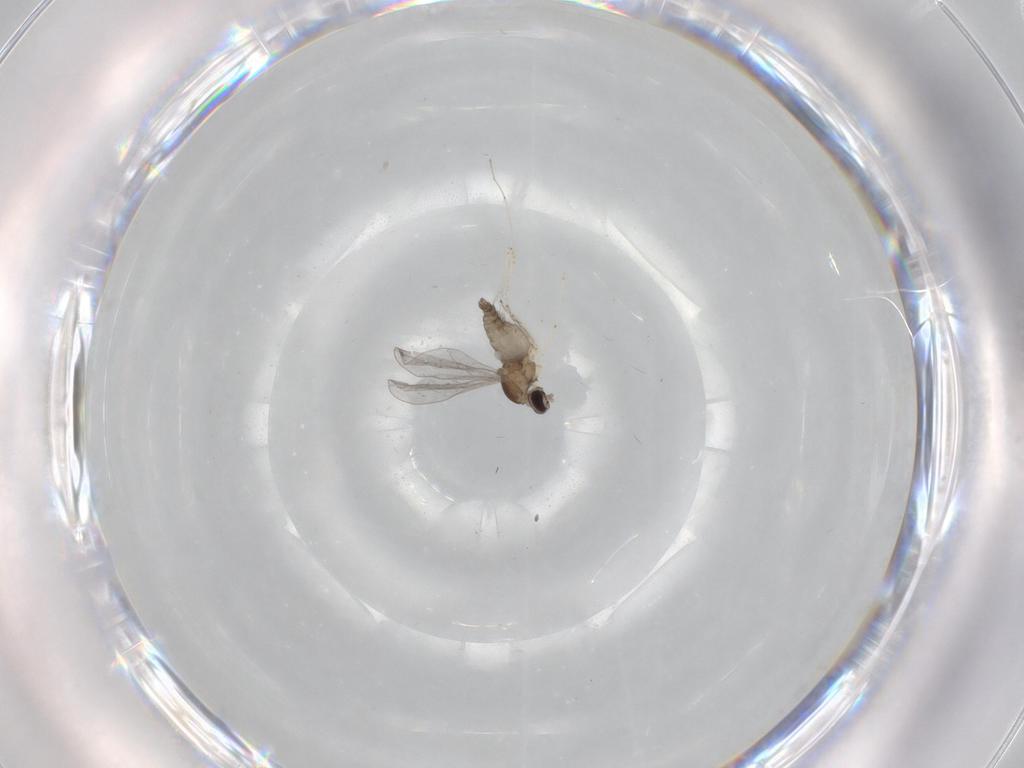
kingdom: Animalia
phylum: Arthropoda
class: Insecta
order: Diptera
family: Cecidomyiidae
